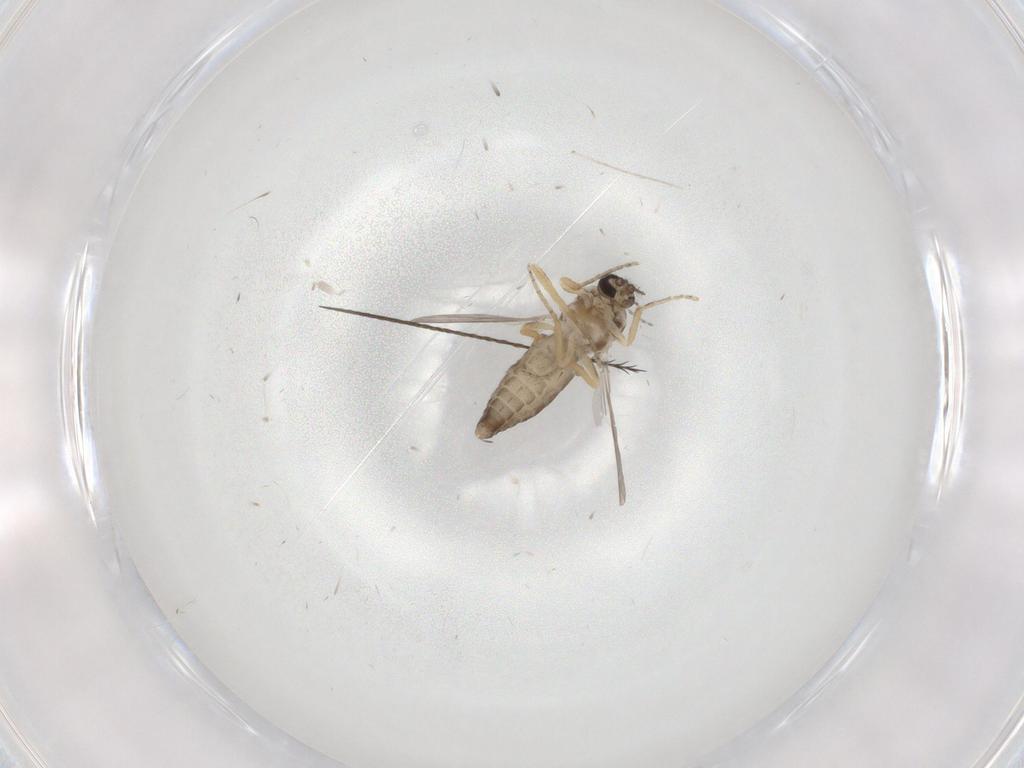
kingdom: Animalia
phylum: Arthropoda
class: Insecta
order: Diptera
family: Ceratopogonidae
